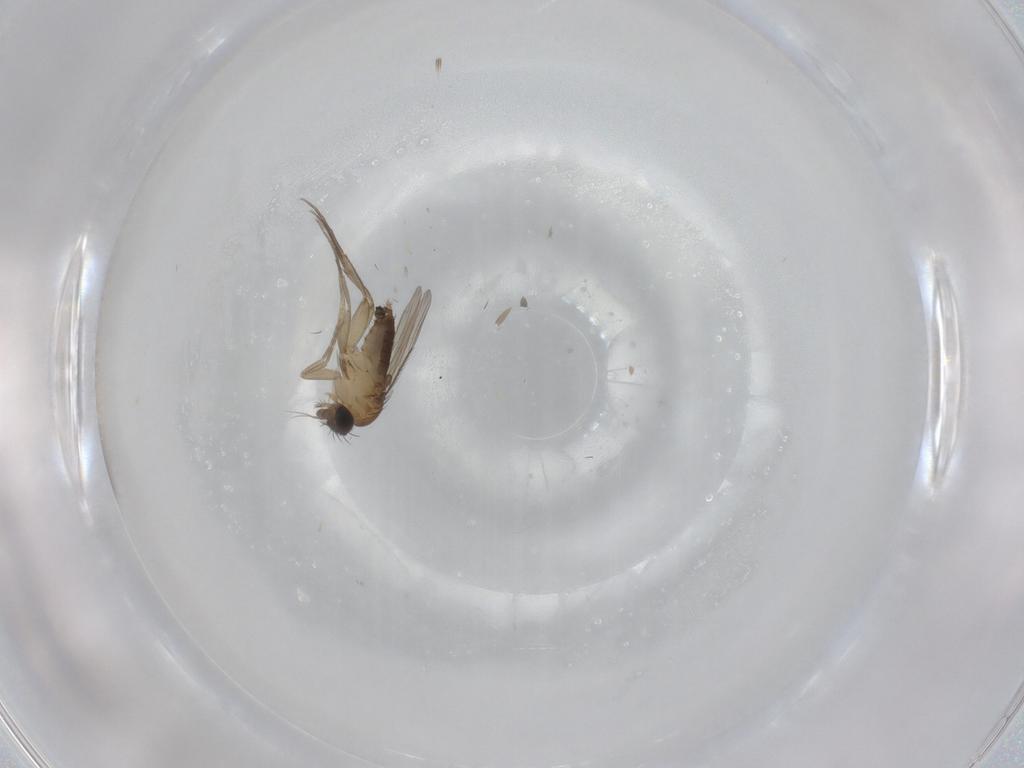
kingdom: Animalia
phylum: Arthropoda
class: Insecta
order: Diptera
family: Phoridae
